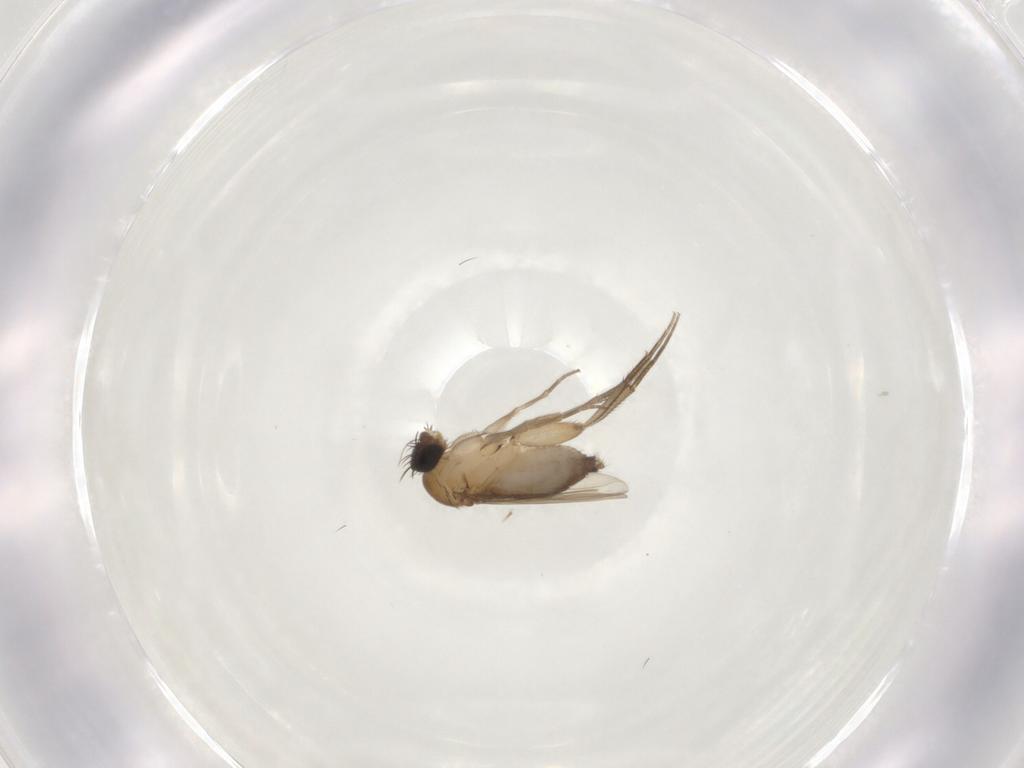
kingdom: Animalia
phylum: Arthropoda
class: Insecta
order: Diptera
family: Phoridae
